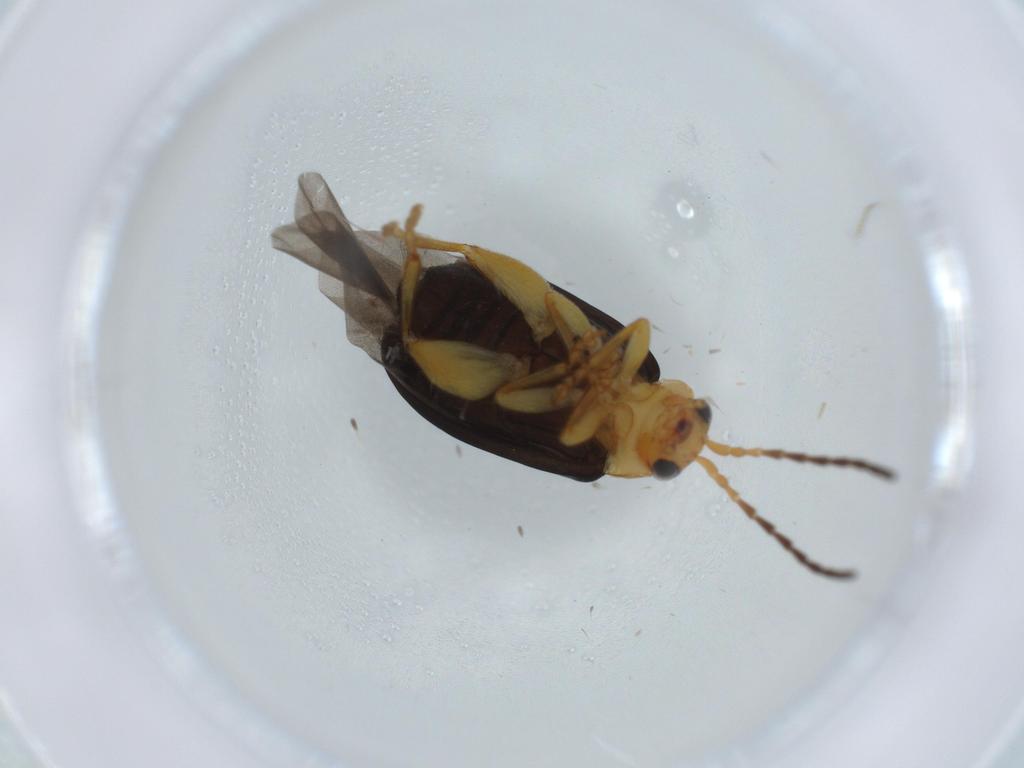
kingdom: Animalia
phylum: Arthropoda
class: Insecta
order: Coleoptera
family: Chrysomelidae
